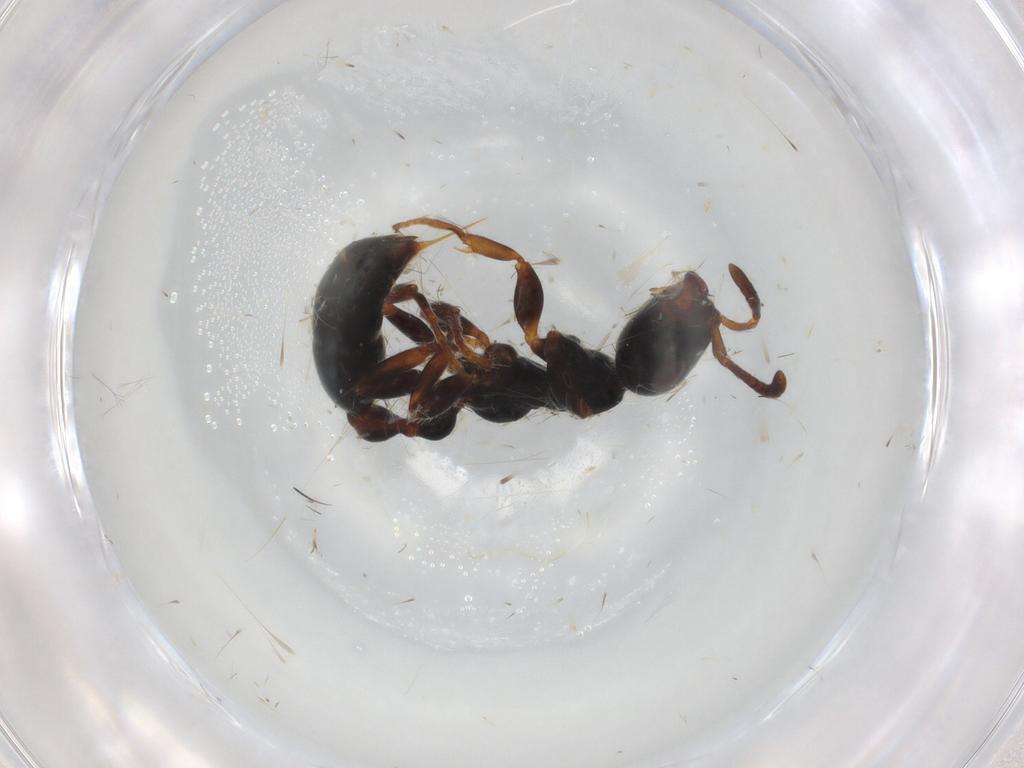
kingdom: Animalia
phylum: Arthropoda
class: Insecta
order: Hymenoptera
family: Formicidae
